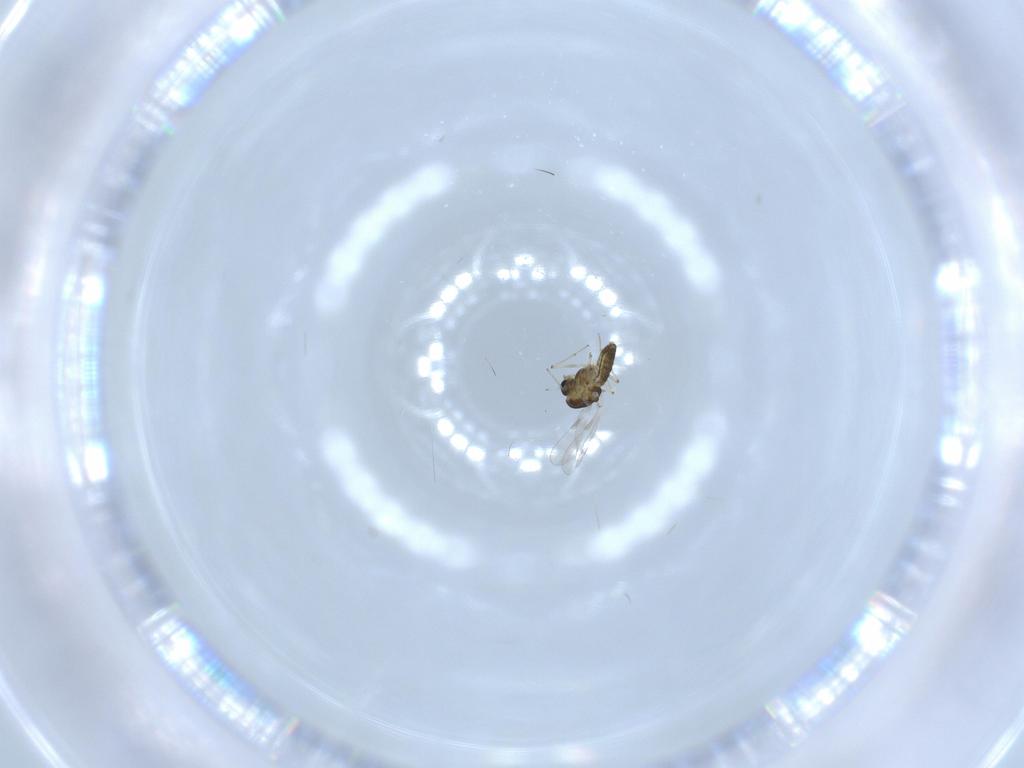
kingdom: Animalia
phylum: Arthropoda
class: Insecta
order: Diptera
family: Chironomidae
